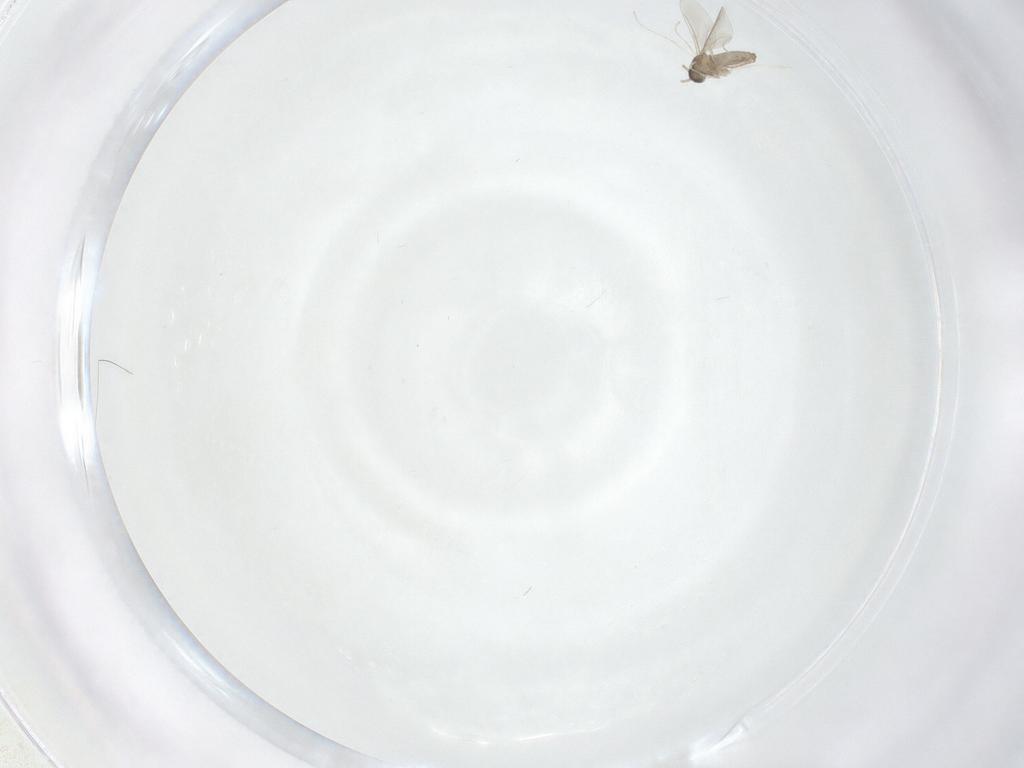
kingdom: Animalia
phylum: Arthropoda
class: Insecta
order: Diptera
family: Cecidomyiidae
